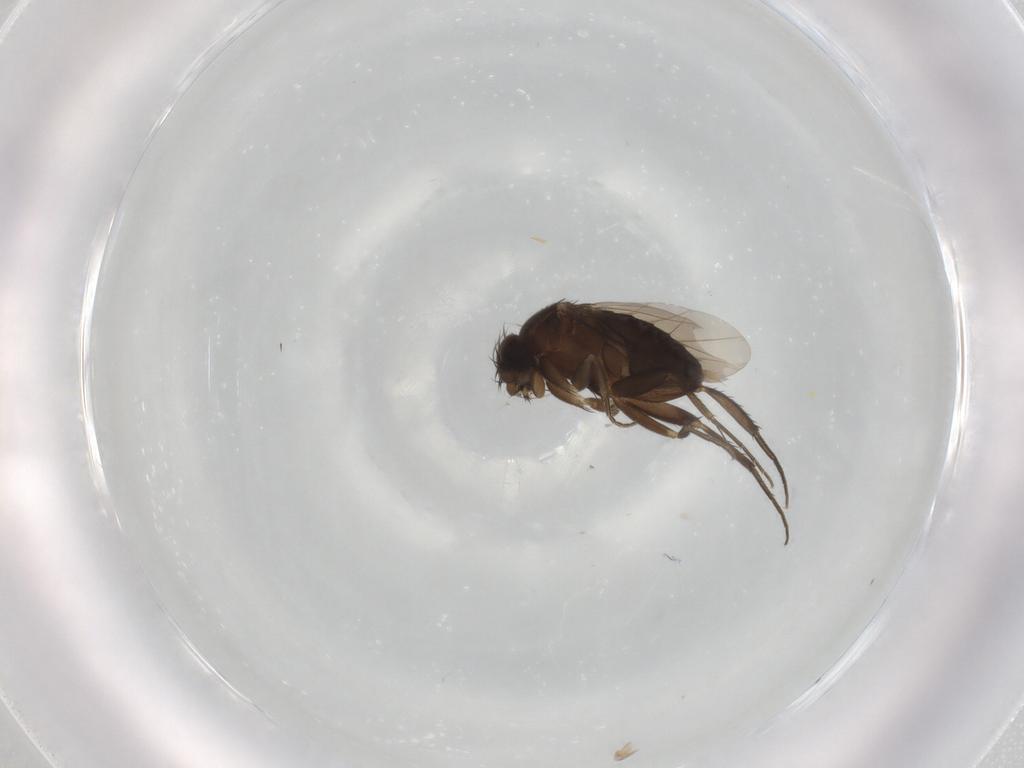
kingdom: Animalia
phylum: Arthropoda
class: Insecta
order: Diptera
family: Phoridae
